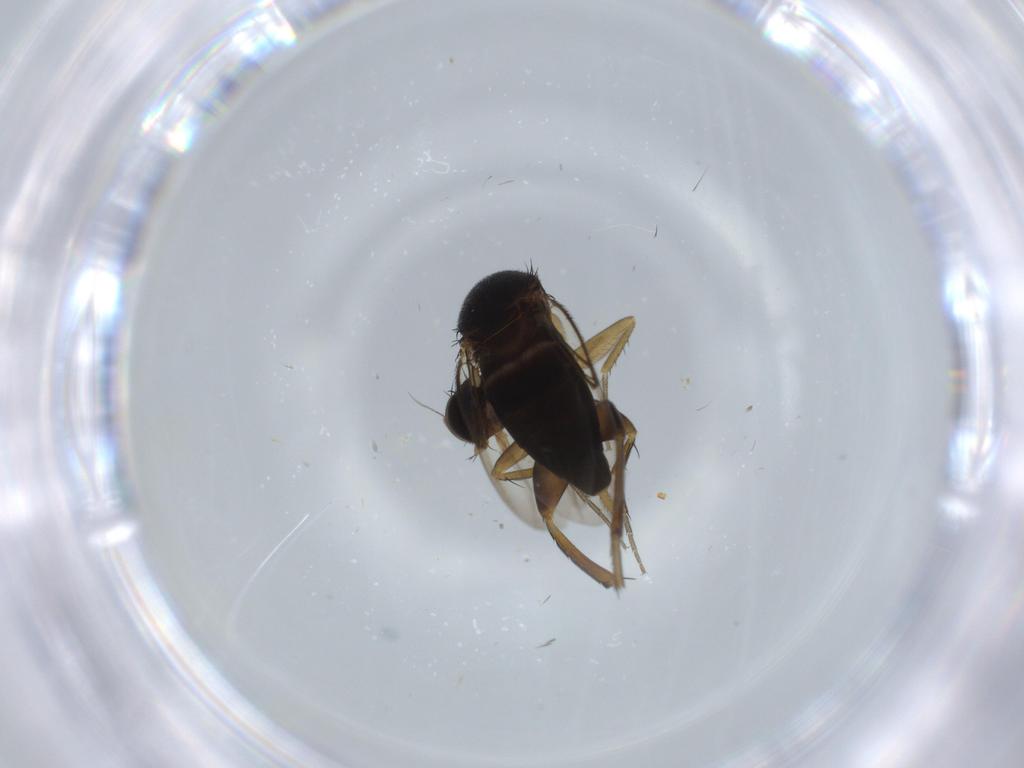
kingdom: Animalia
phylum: Arthropoda
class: Insecta
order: Diptera
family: Phoridae
